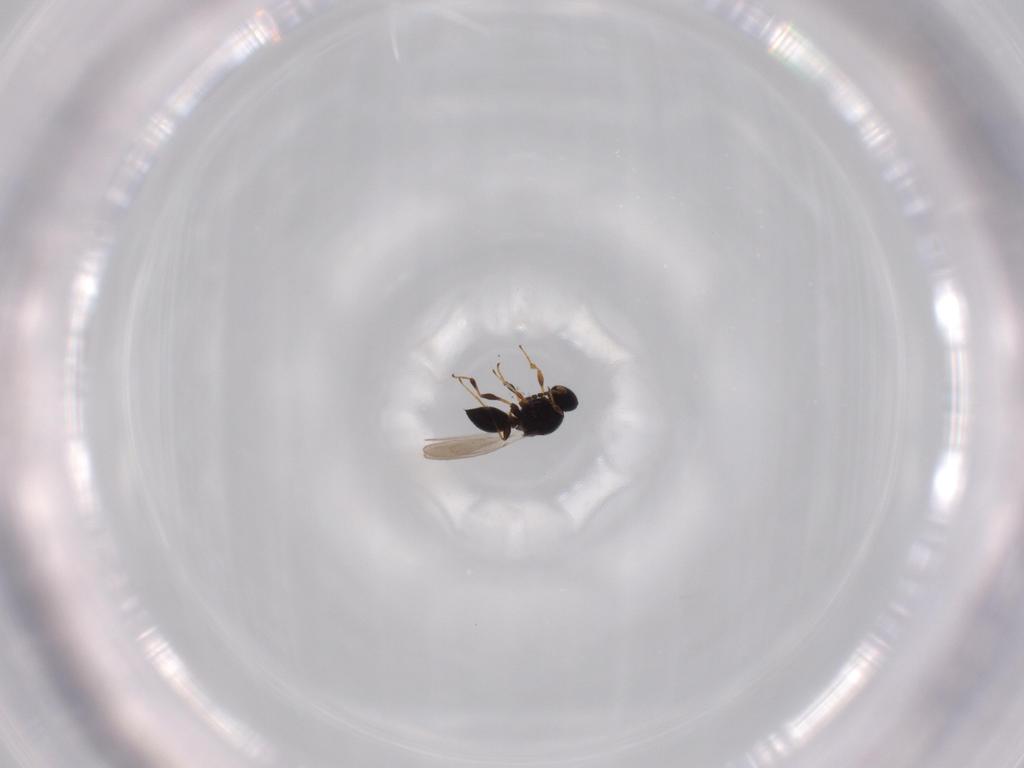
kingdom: Animalia
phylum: Arthropoda
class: Insecta
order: Hymenoptera
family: Platygastridae
